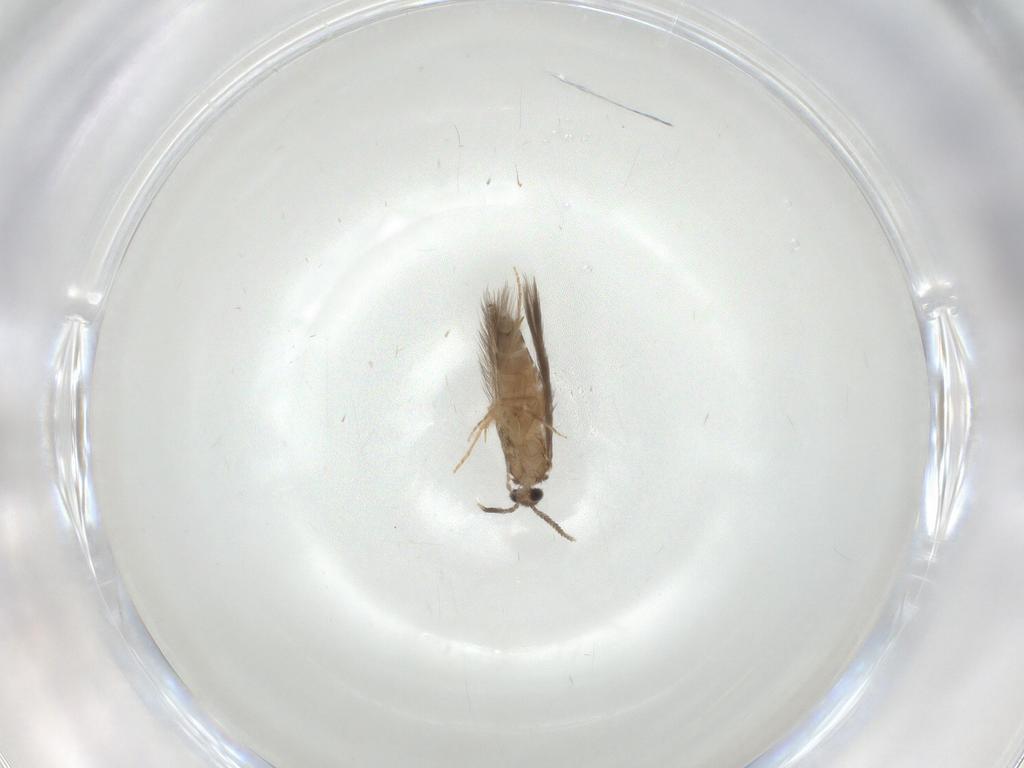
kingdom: Animalia
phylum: Arthropoda
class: Insecta
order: Trichoptera
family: Hydroptilidae
